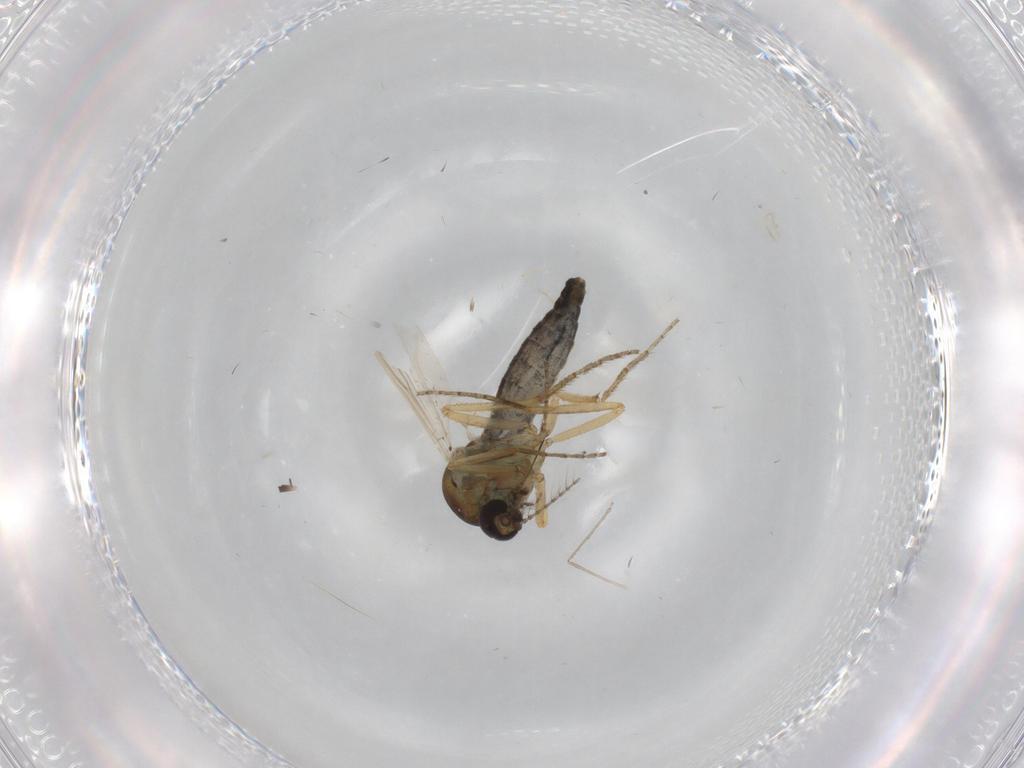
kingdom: Animalia
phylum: Arthropoda
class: Insecta
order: Diptera
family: Ceratopogonidae
